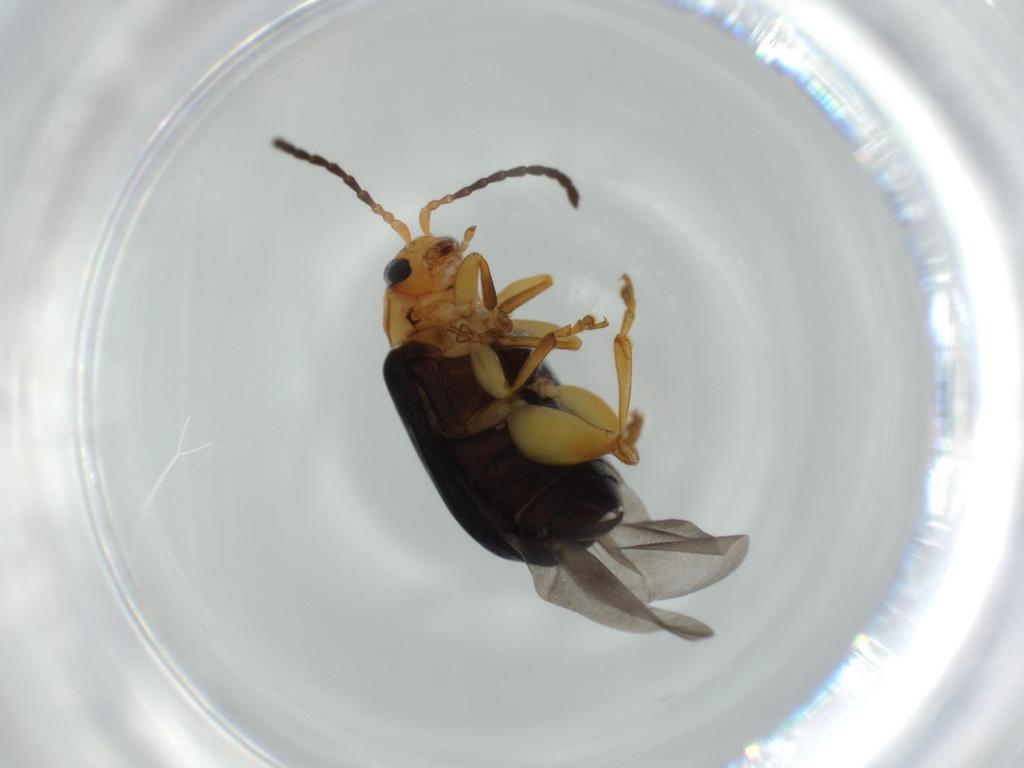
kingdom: Animalia
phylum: Arthropoda
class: Insecta
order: Coleoptera
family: Chrysomelidae
